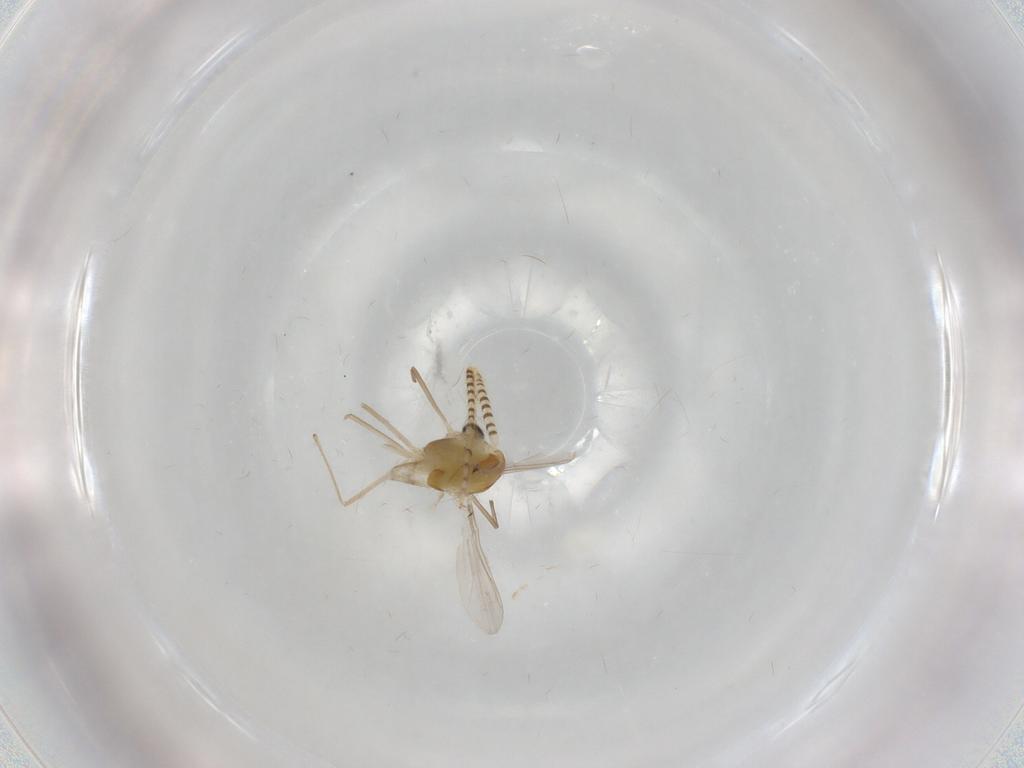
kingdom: Animalia
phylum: Arthropoda
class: Insecta
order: Diptera
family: Chironomidae
